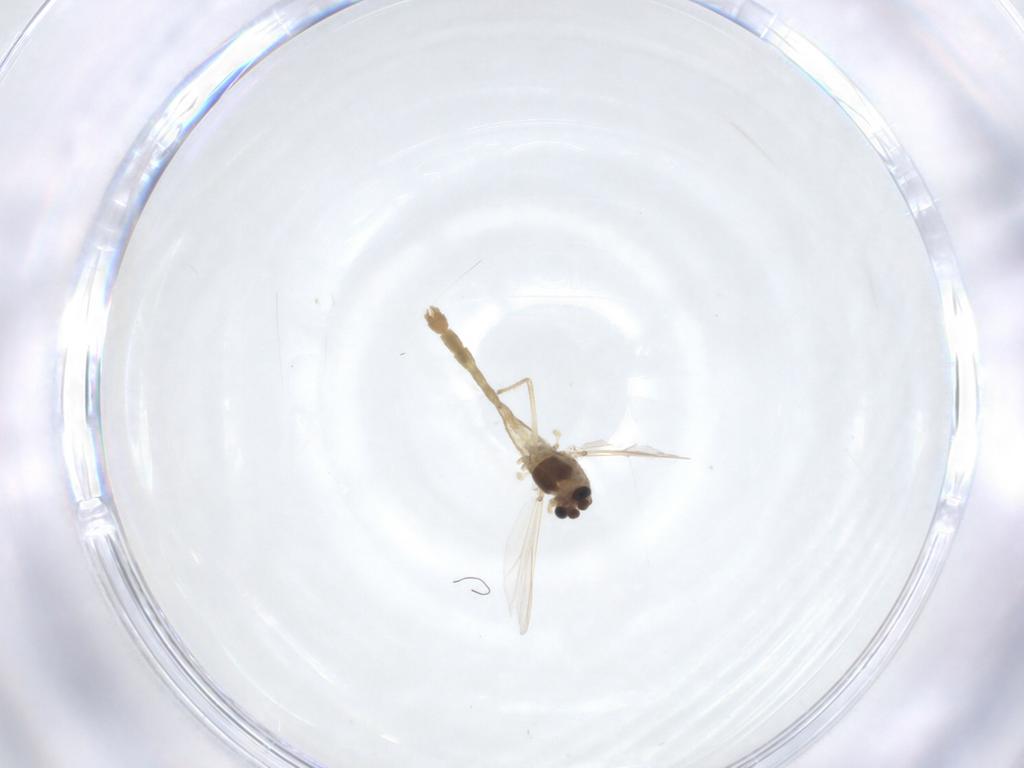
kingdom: Animalia
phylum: Arthropoda
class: Insecta
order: Diptera
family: Chironomidae
